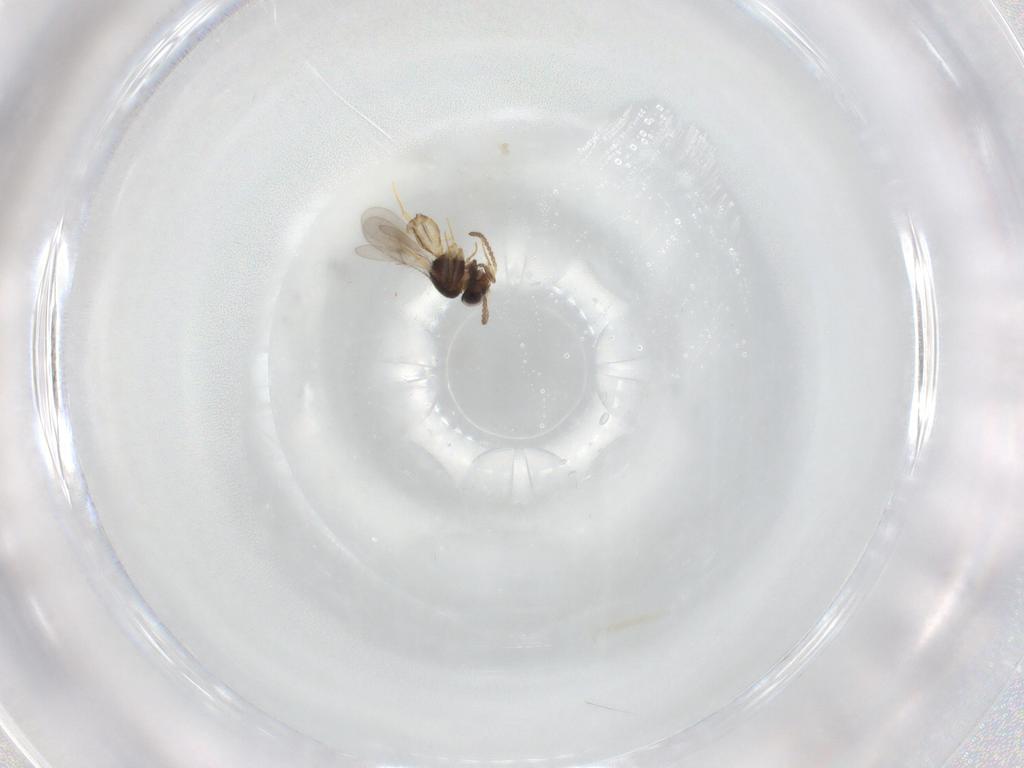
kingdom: Animalia
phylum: Arthropoda
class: Insecta
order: Hymenoptera
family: Scelionidae
